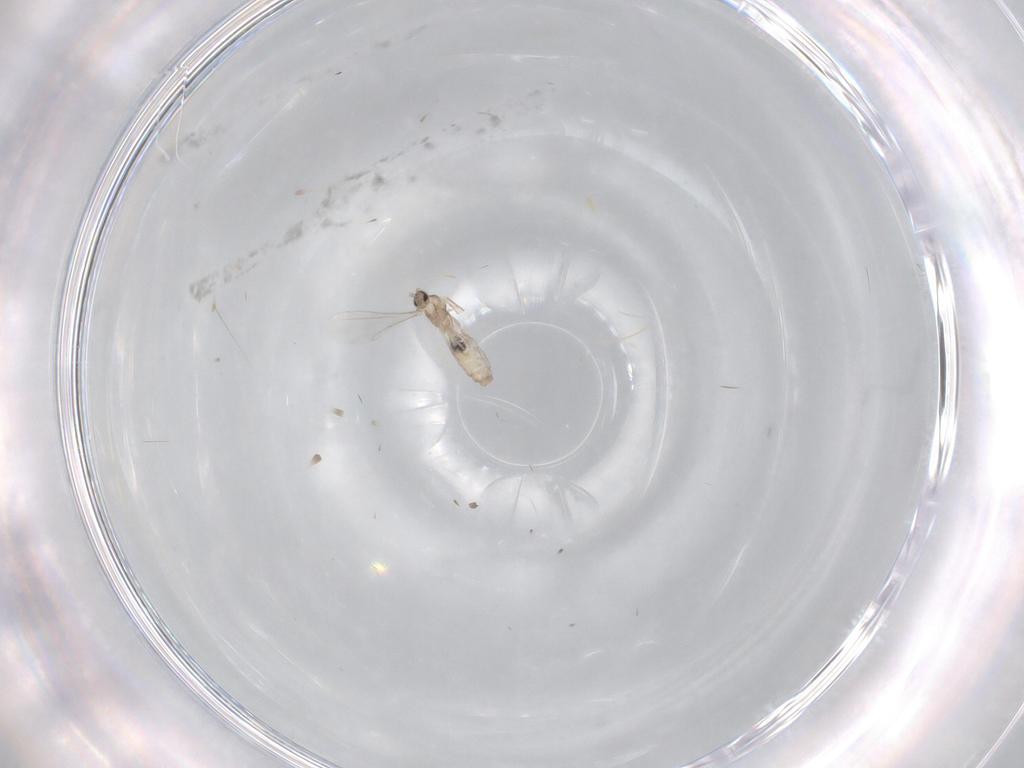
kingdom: Animalia
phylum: Arthropoda
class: Insecta
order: Diptera
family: Cecidomyiidae
